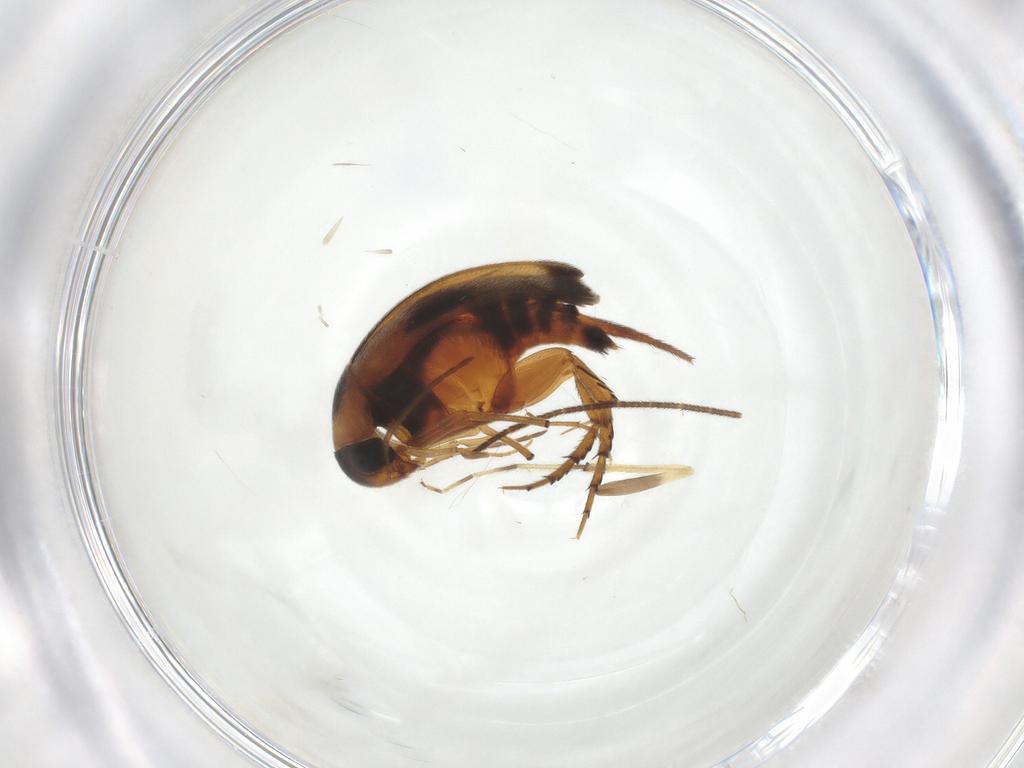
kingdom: Animalia
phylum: Arthropoda
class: Insecta
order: Coleoptera
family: Mordellidae
